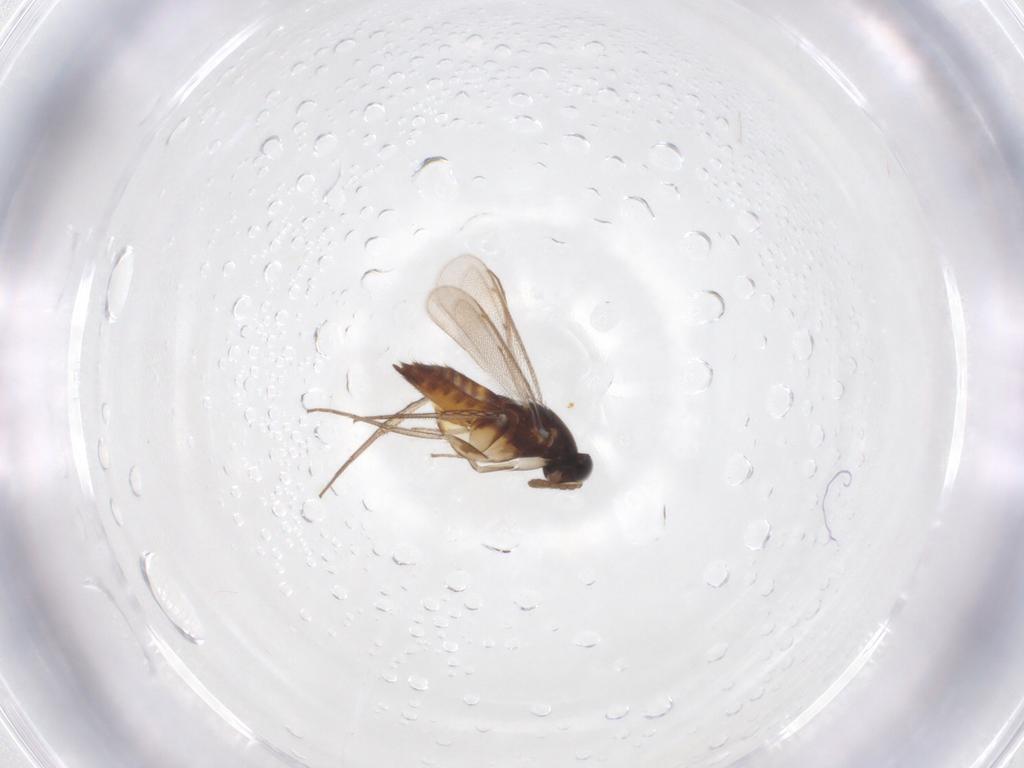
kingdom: Animalia
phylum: Arthropoda
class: Insecta
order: Hymenoptera
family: Eulophidae
